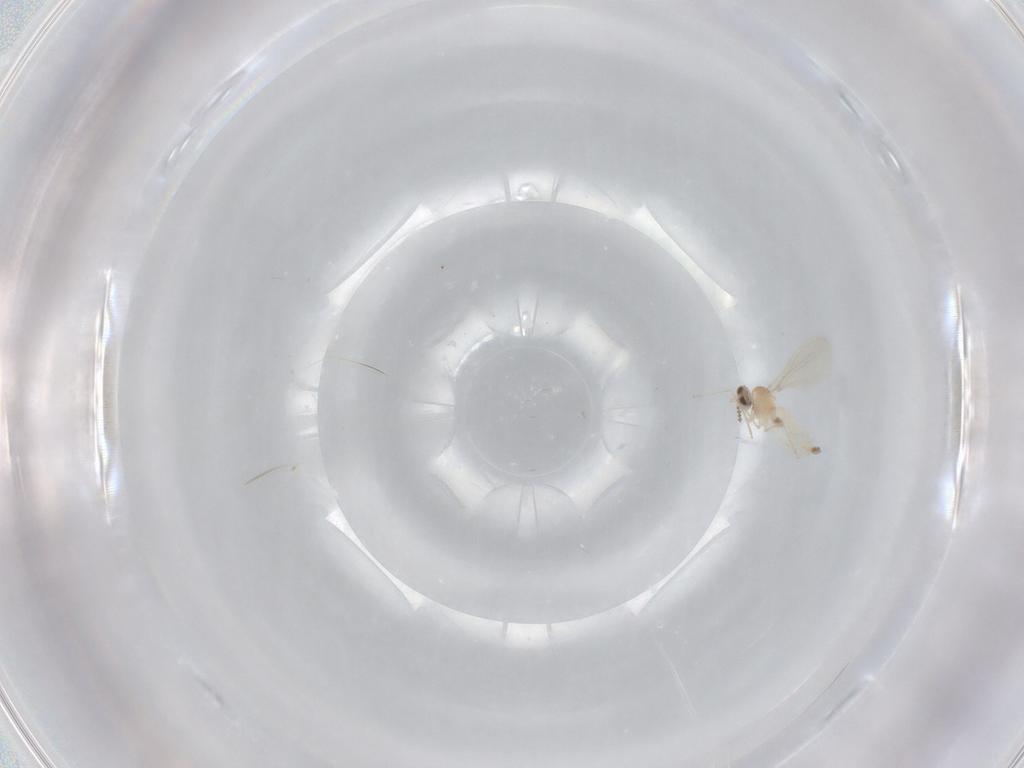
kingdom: Animalia
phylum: Arthropoda
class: Insecta
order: Diptera
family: Cecidomyiidae
